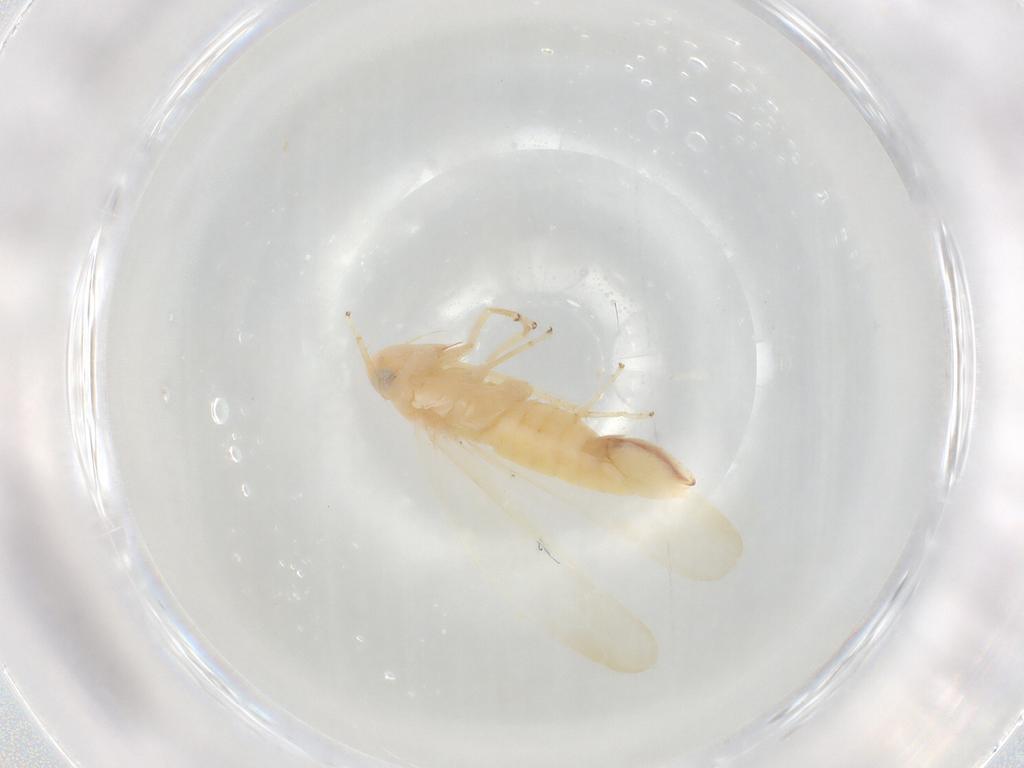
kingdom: Animalia
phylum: Arthropoda
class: Insecta
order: Hemiptera
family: Cicadellidae
